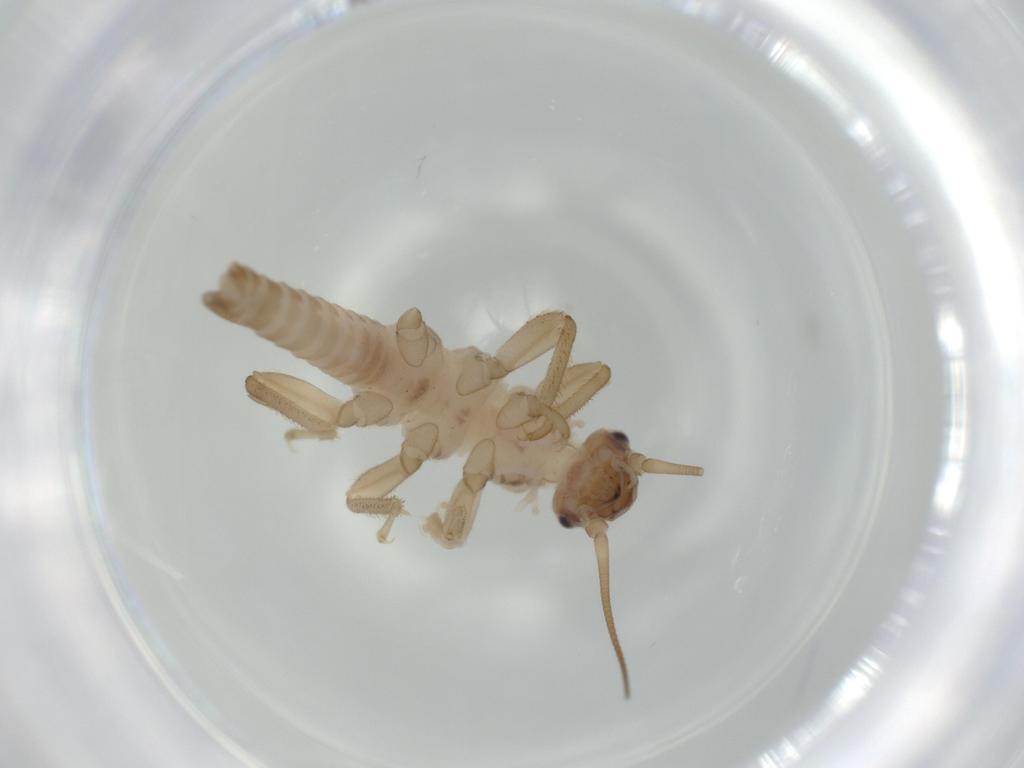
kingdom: Animalia
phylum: Arthropoda
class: Insecta
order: Plecoptera
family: Leuctridae
